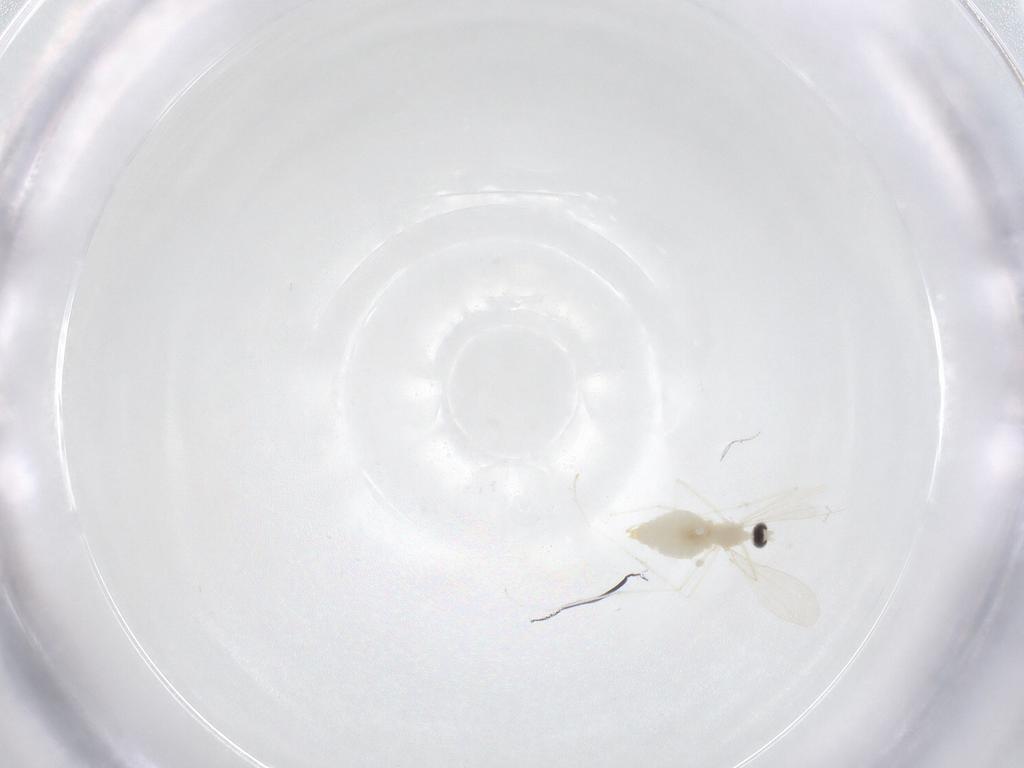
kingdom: Animalia
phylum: Arthropoda
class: Insecta
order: Diptera
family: Cecidomyiidae
